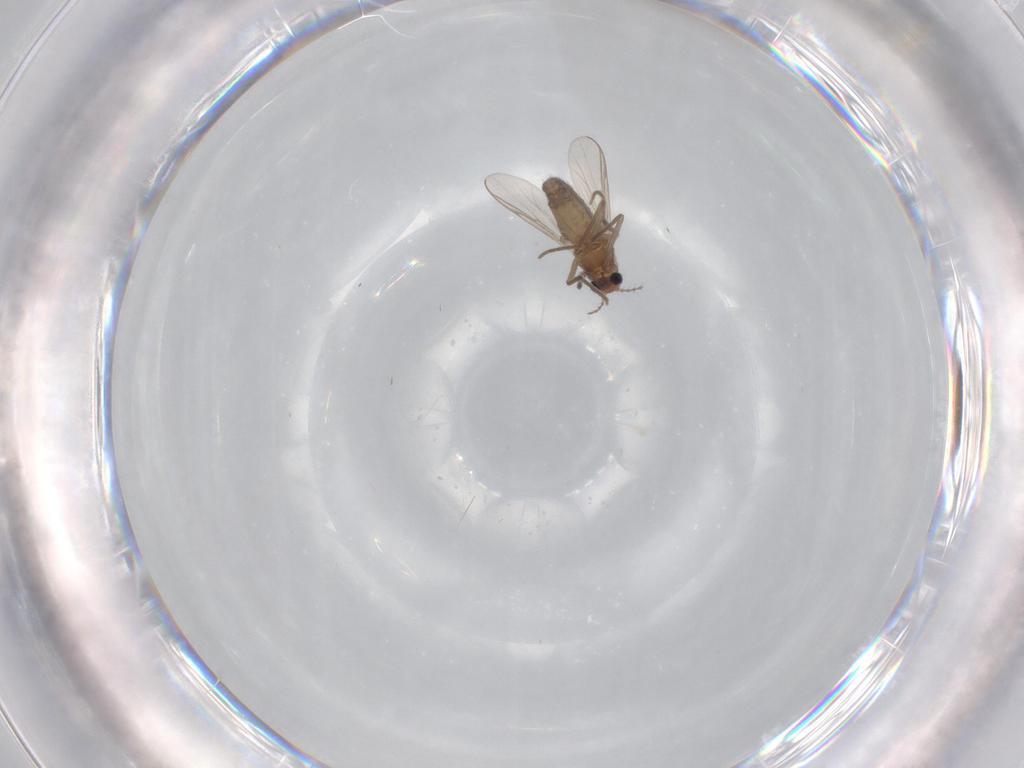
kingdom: Animalia
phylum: Arthropoda
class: Insecta
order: Diptera
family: Chironomidae
